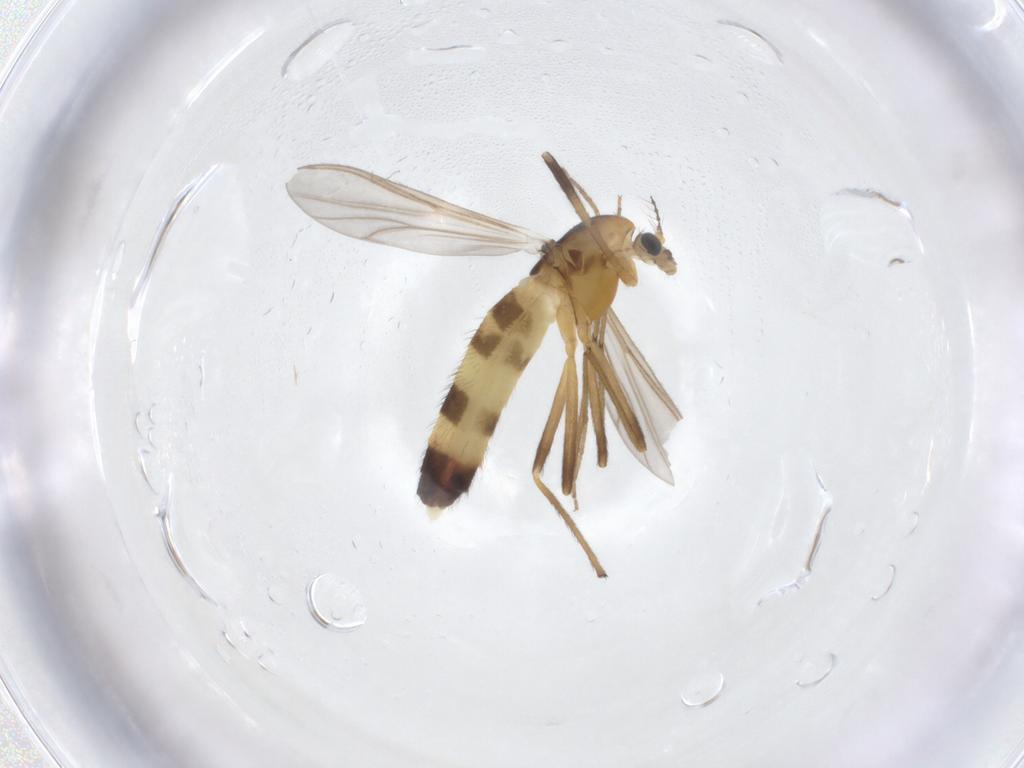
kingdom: Animalia
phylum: Arthropoda
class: Insecta
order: Diptera
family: Chironomidae
